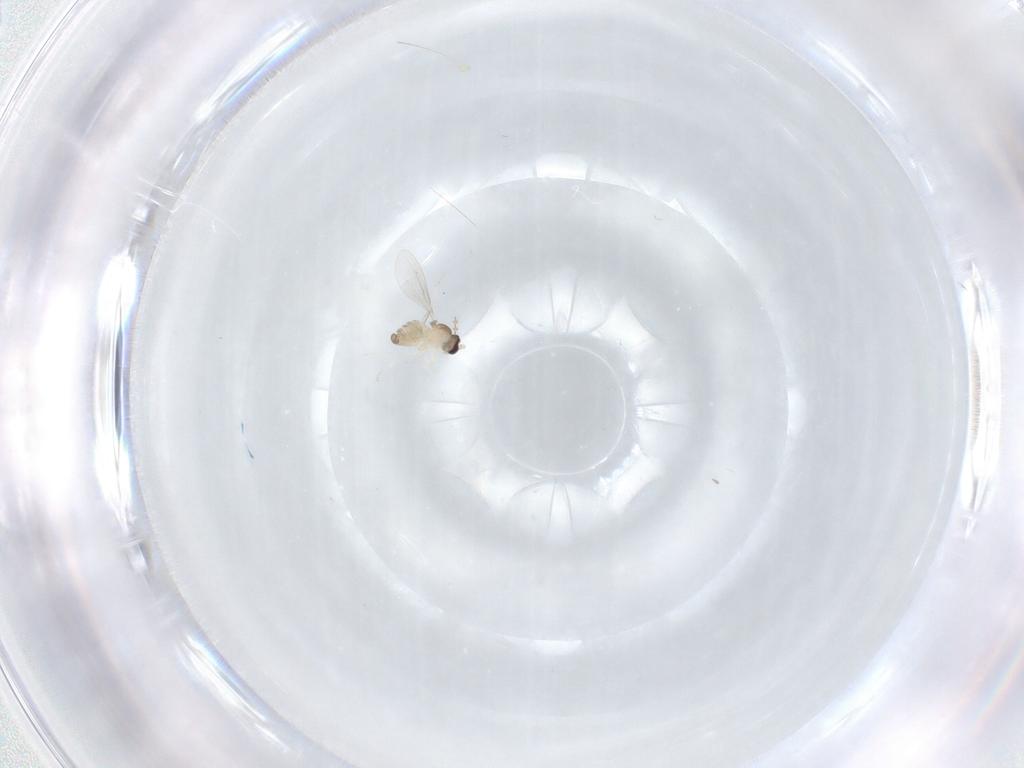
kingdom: Animalia
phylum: Arthropoda
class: Insecta
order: Diptera
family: Cecidomyiidae
